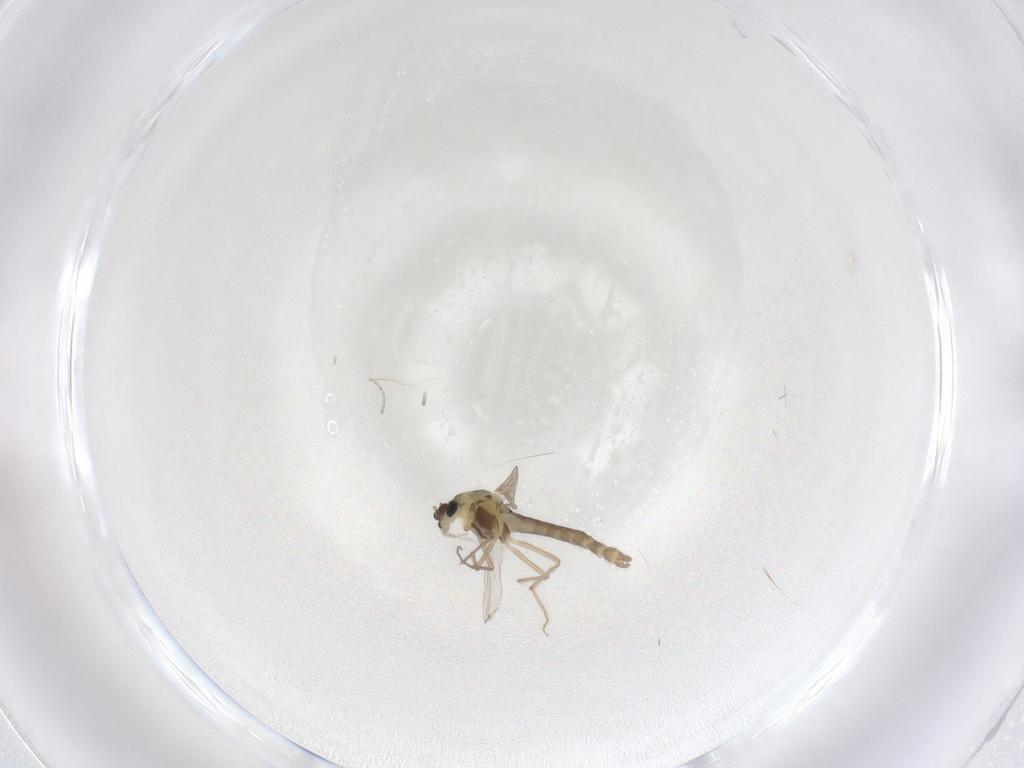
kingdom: Animalia
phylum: Arthropoda
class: Insecta
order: Diptera
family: Chironomidae
